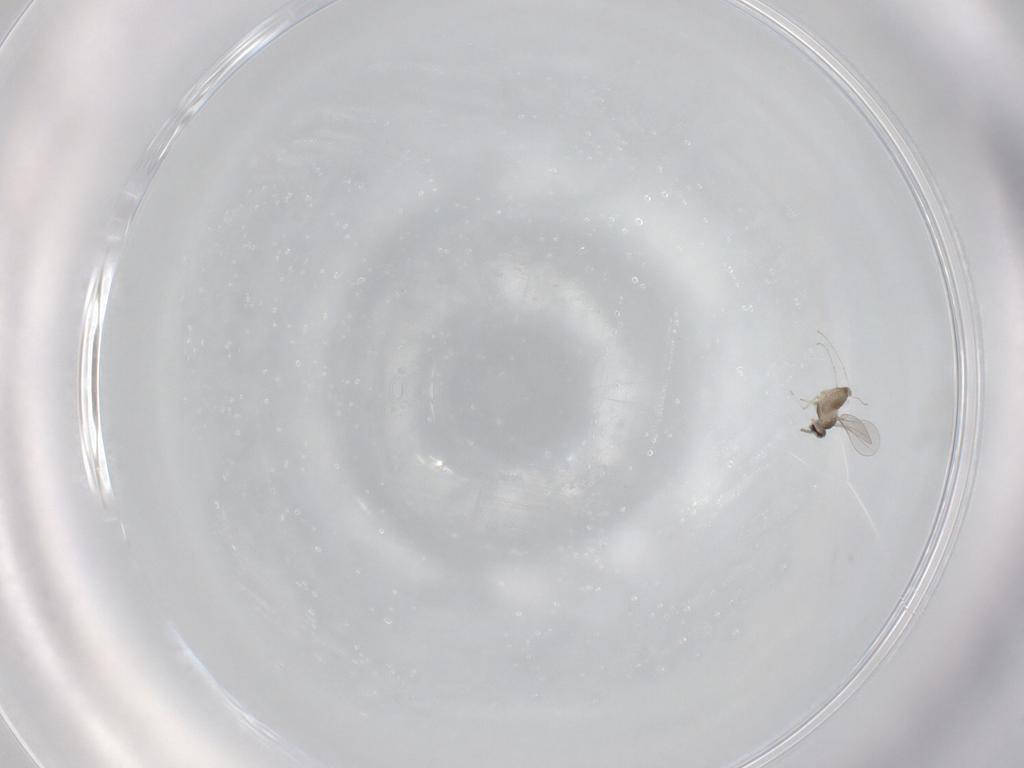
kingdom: Animalia
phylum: Arthropoda
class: Insecta
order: Diptera
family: Cecidomyiidae
